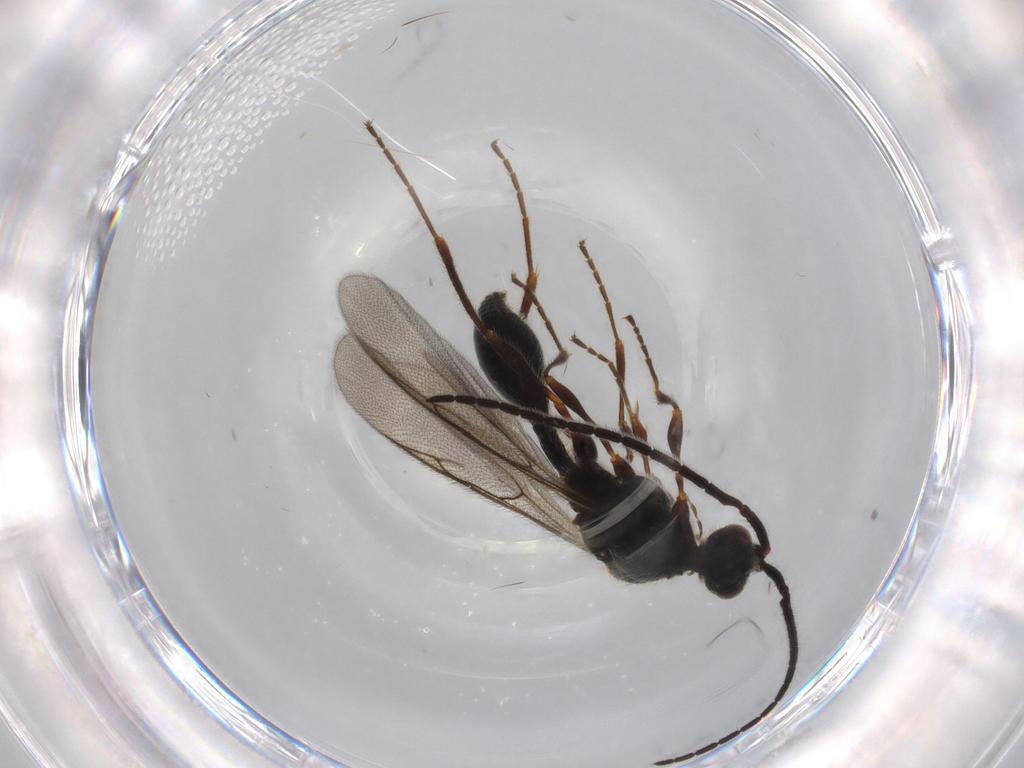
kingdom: Animalia
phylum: Arthropoda
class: Insecta
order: Hymenoptera
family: Diapriidae
